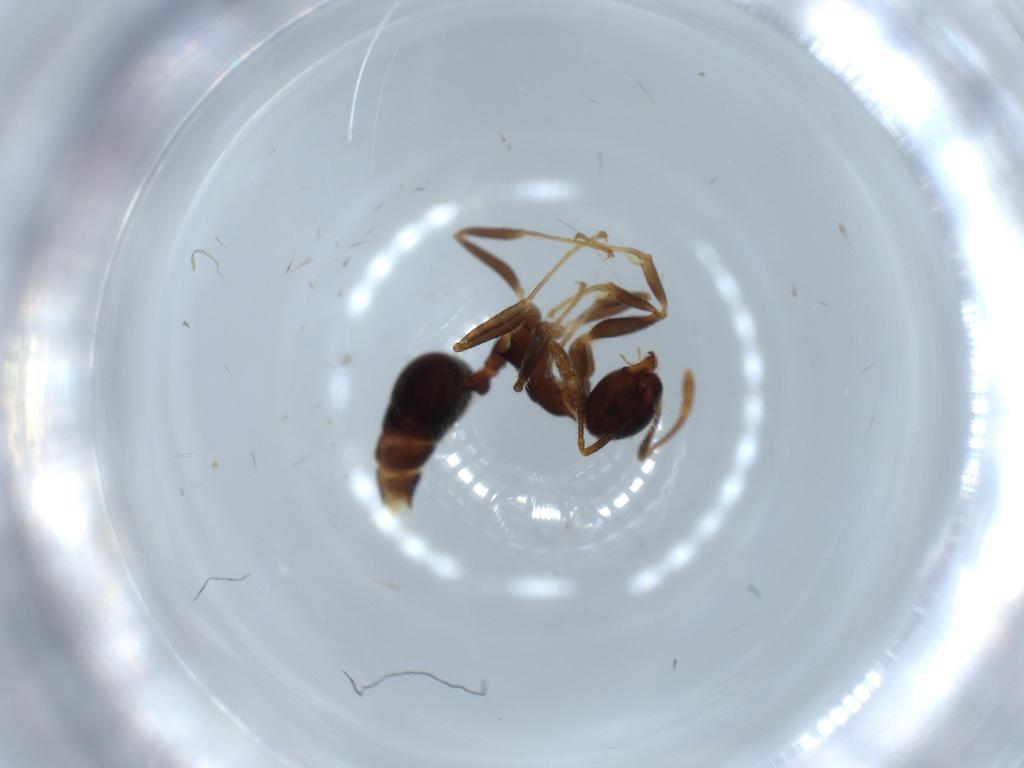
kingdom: Animalia
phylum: Arthropoda
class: Insecta
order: Hymenoptera
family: Formicidae
